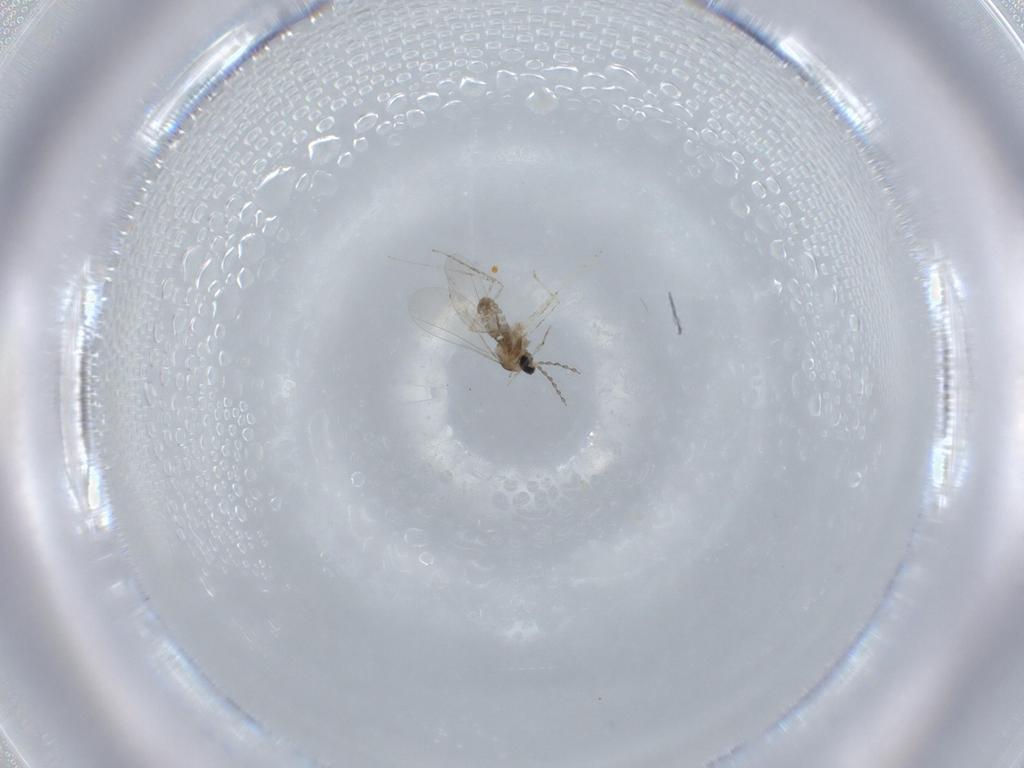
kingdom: Animalia
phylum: Arthropoda
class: Insecta
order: Diptera
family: Cecidomyiidae
